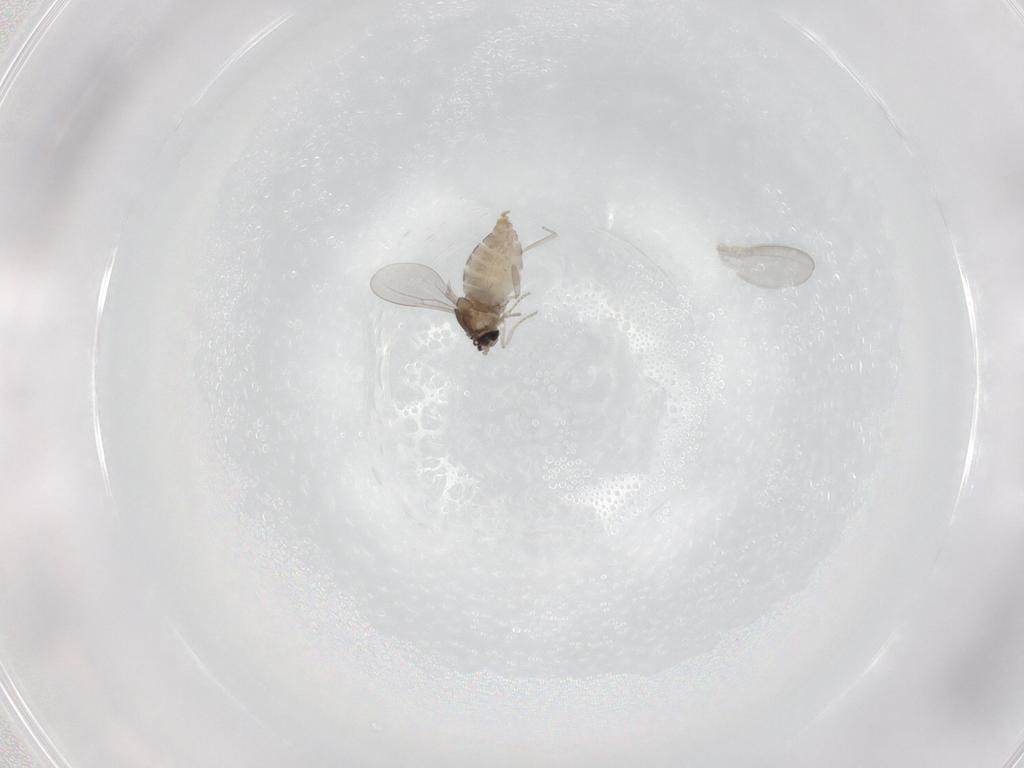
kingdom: Animalia
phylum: Arthropoda
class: Insecta
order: Diptera
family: Cecidomyiidae
